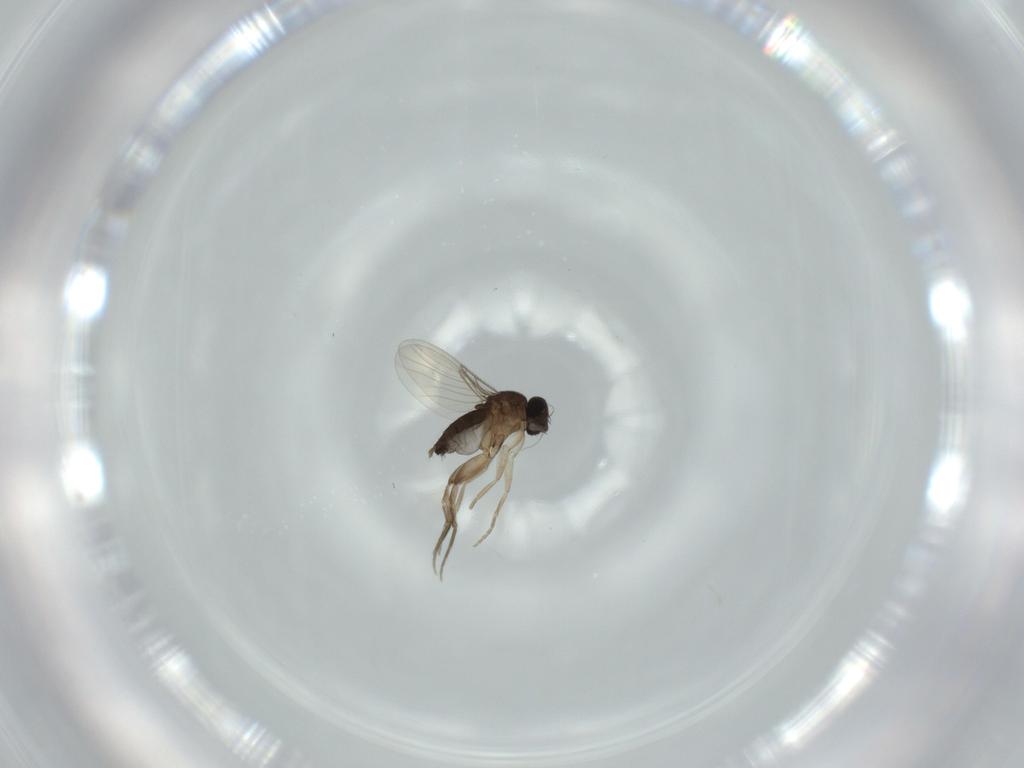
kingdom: Animalia
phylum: Arthropoda
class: Insecta
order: Diptera
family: Phoridae
